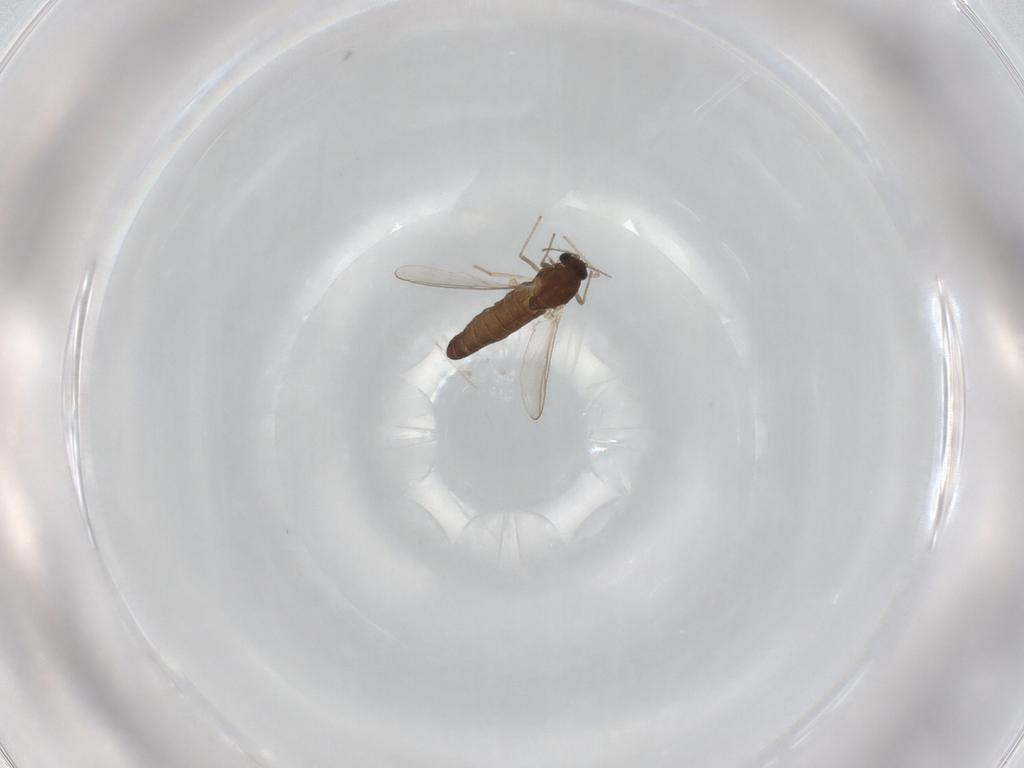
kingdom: Animalia
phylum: Arthropoda
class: Insecta
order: Diptera
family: Chironomidae
